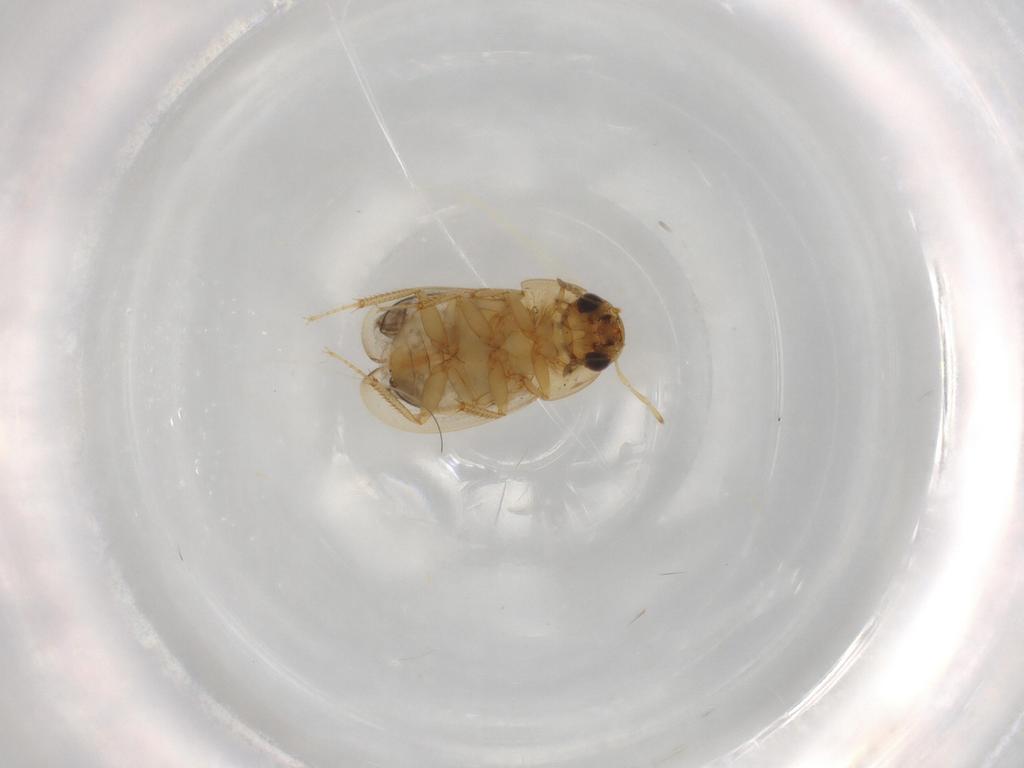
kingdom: Animalia
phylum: Arthropoda
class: Insecta
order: Coleoptera
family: Hydrophilidae
